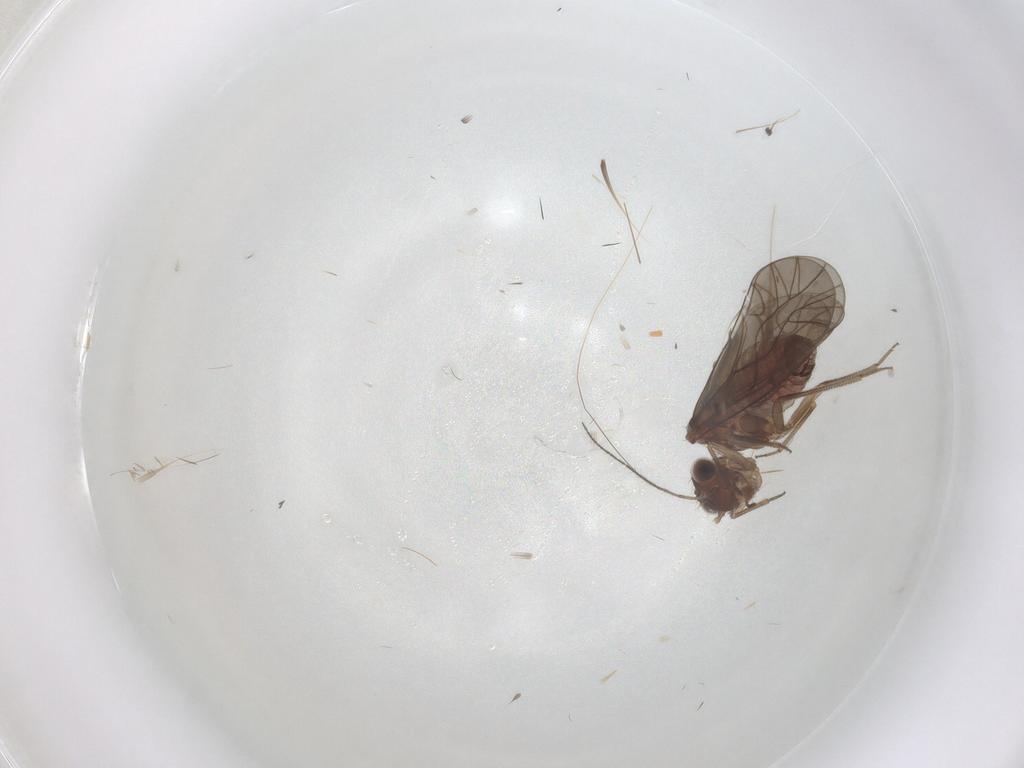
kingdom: Animalia
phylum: Arthropoda
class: Insecta
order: Psocodea
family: Lachesillidae
